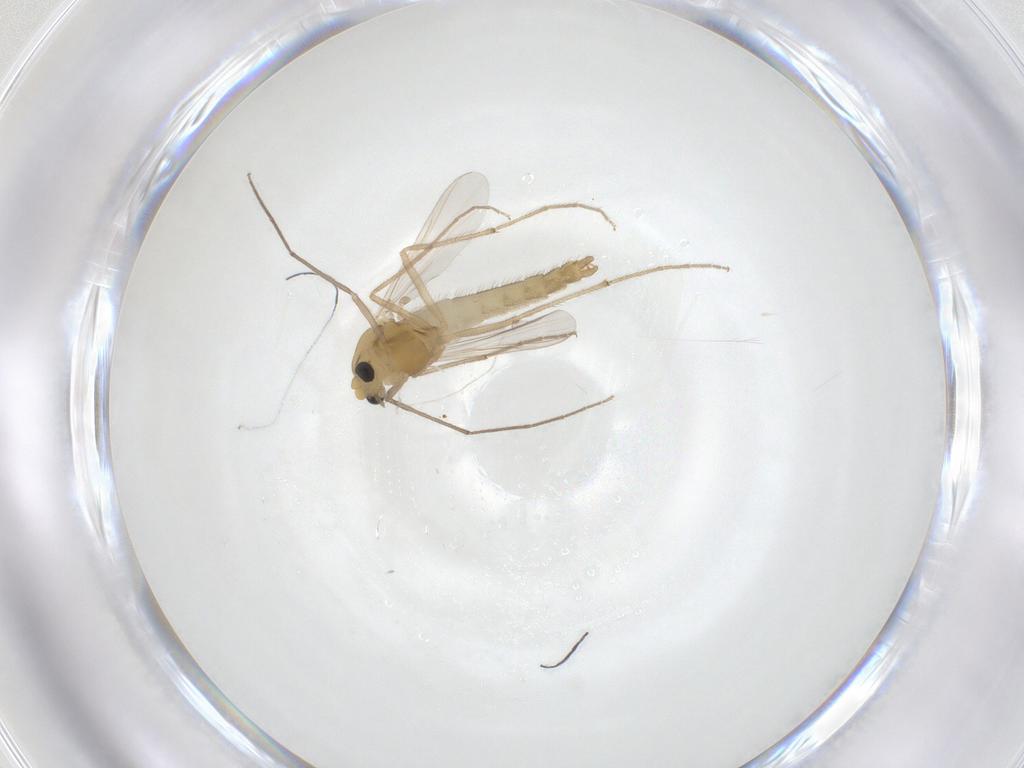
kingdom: Animalia
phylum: Arthropoda
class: Insecta
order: Diptera
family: Chironomidae
